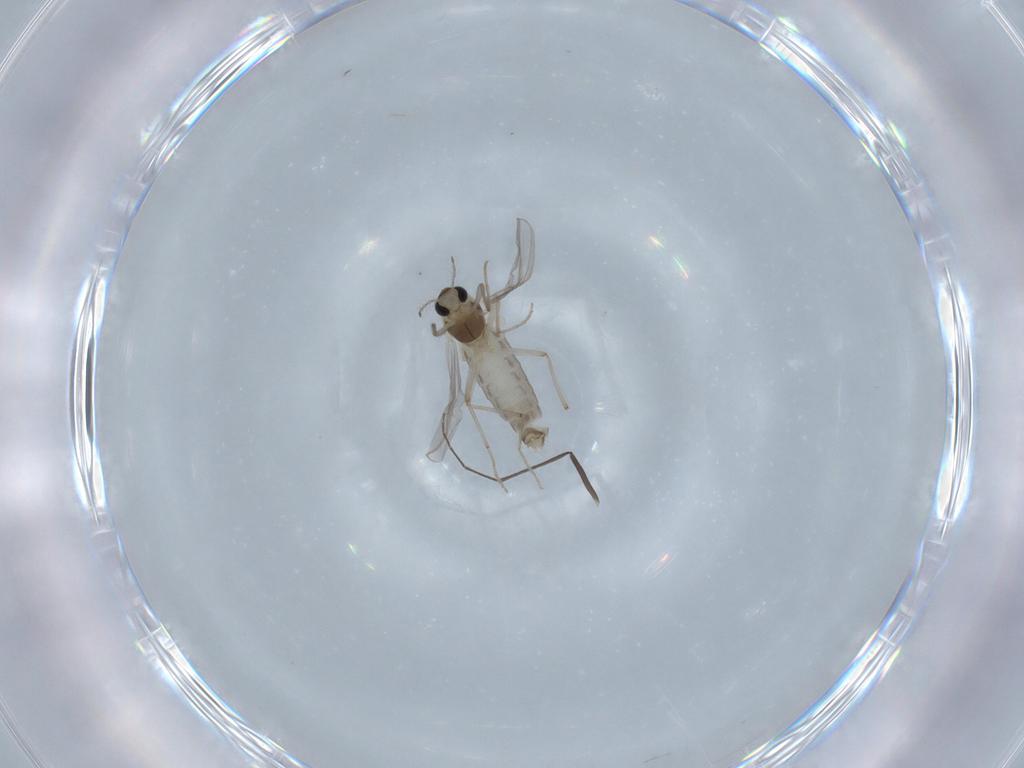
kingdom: Animalia
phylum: Arthropoda
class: Insecta
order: Diptera
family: Chironomidae
